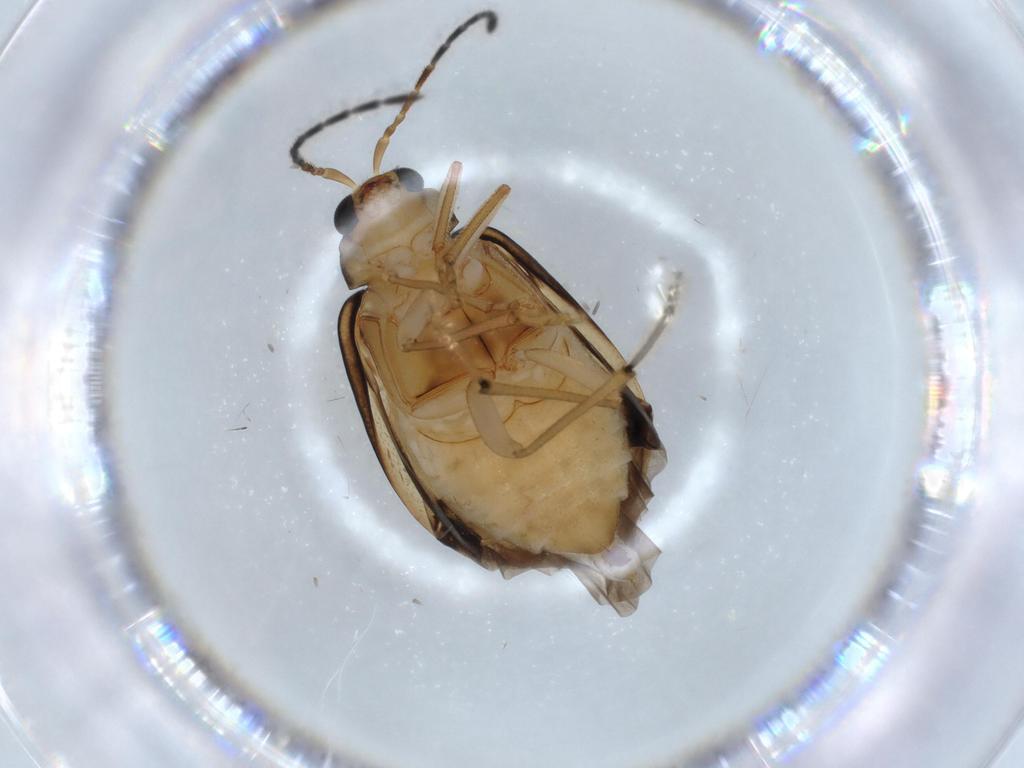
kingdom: Animalia
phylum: Arthropoda
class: Insecta
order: Coleoptera
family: Chrysomelidae
